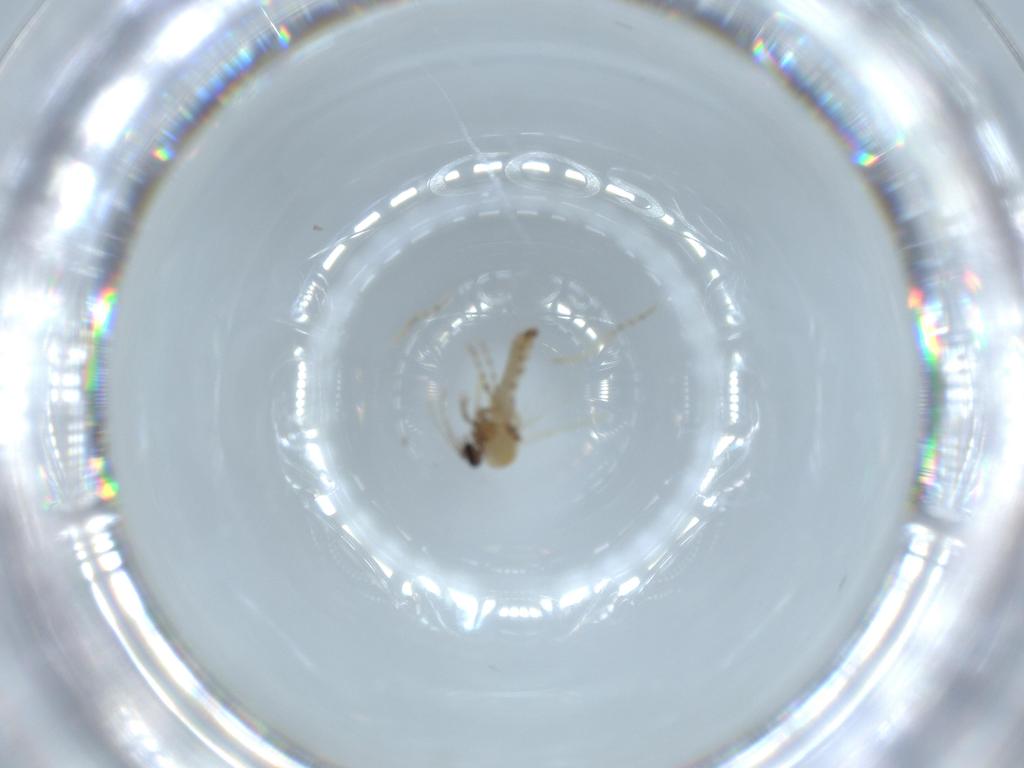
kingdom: Animalia
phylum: Arthropoda
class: Insecta
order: Diptera
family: Ceratopogonidae
